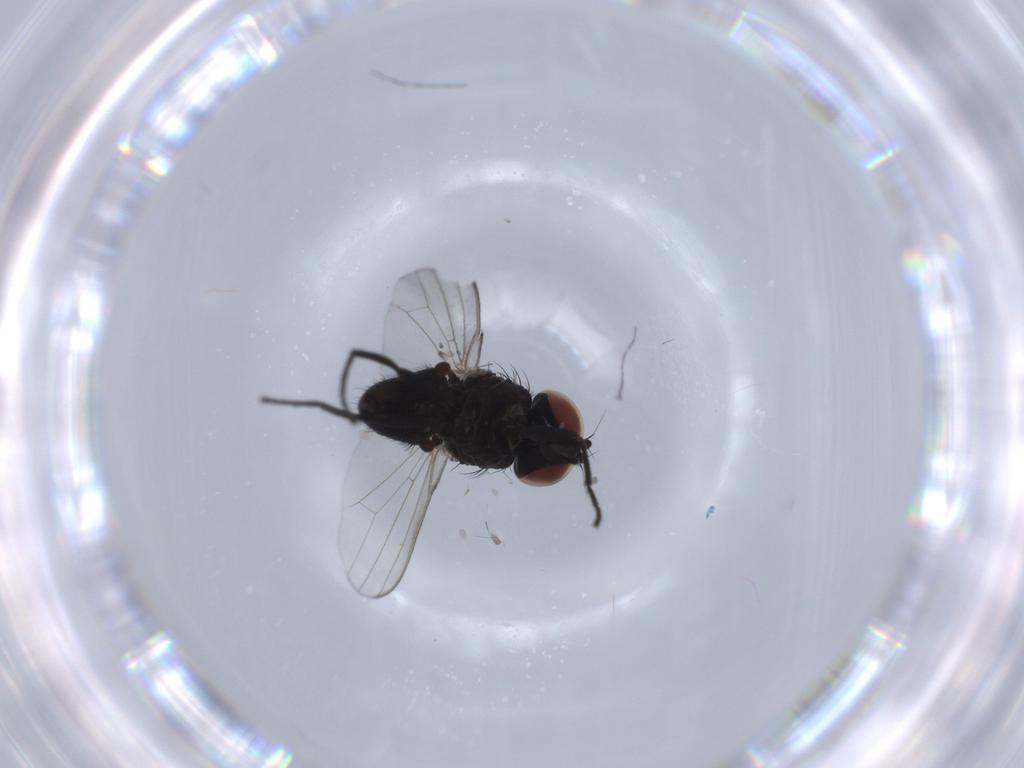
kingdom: Animalia
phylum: Arthropoda
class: Insecta
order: Diptera
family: Milichiidae
